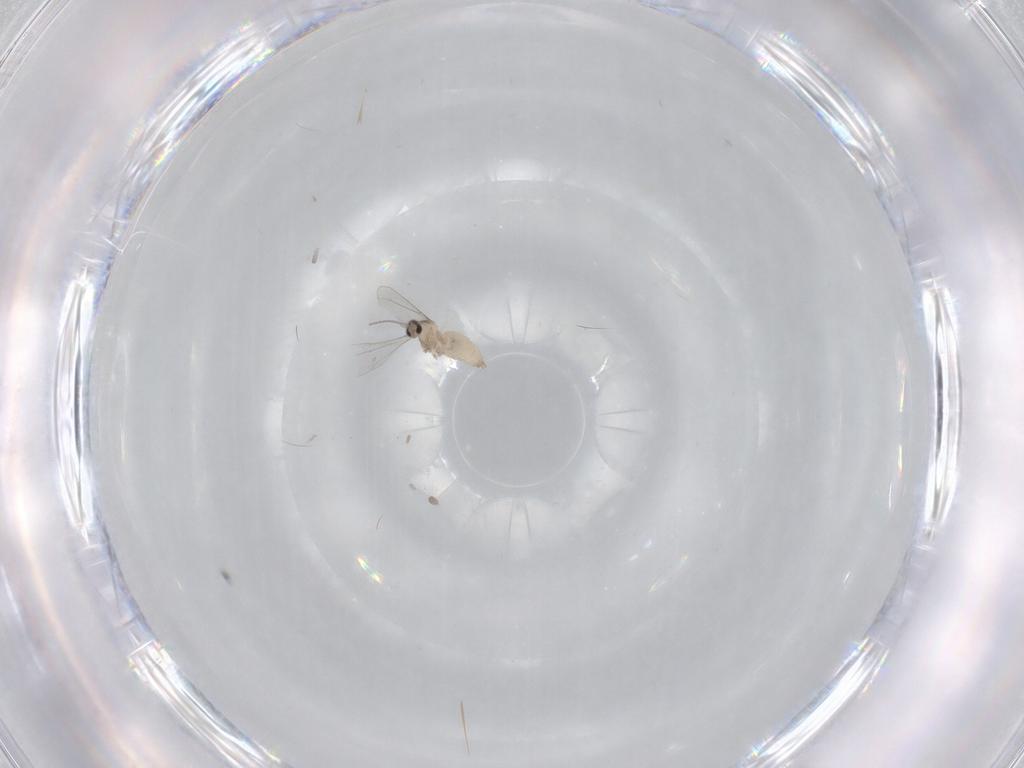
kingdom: Animalia
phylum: Arthropoda
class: Insecta
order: Diptera
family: Cecidomyiidae
